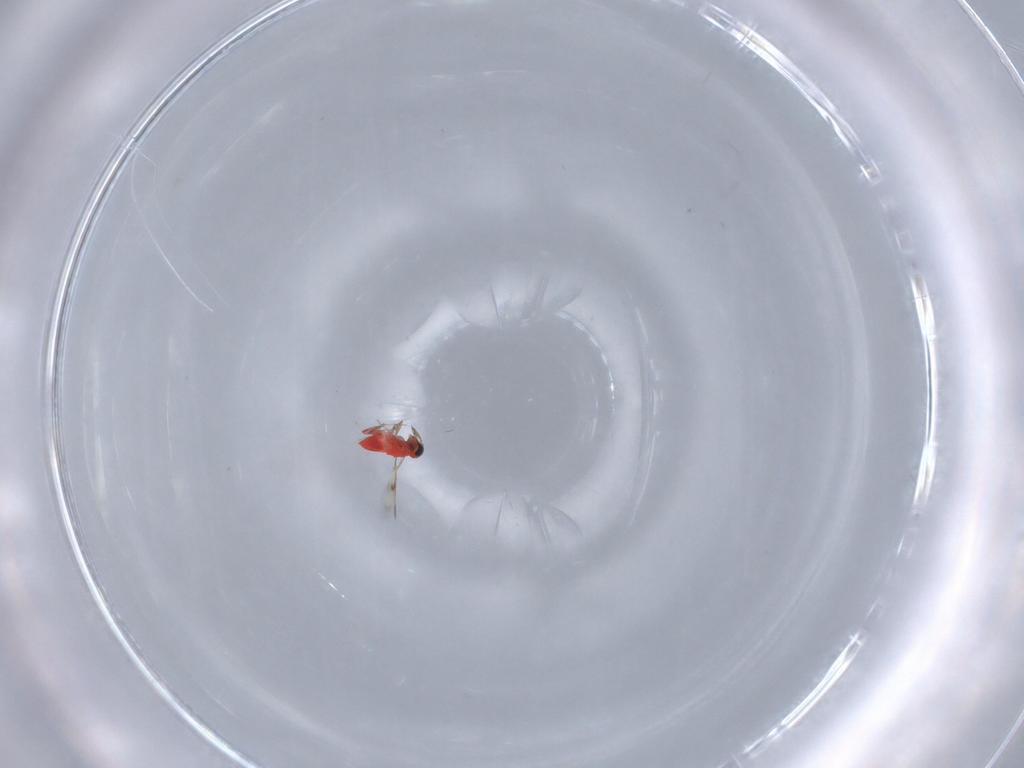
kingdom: Animalia
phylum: Arthropoda
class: Insecta
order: Hymenoptera
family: Trichogrammatidae
